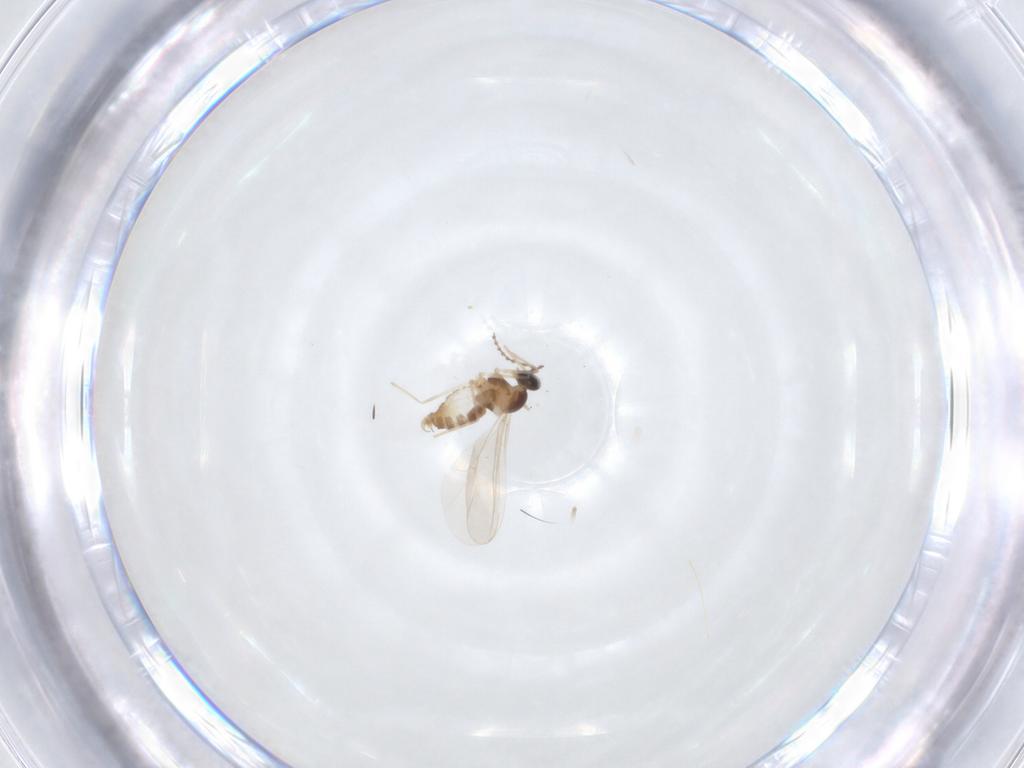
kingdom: Animalia
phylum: Arthropoda
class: Insecta
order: Diptera
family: Cecidomyiidae
